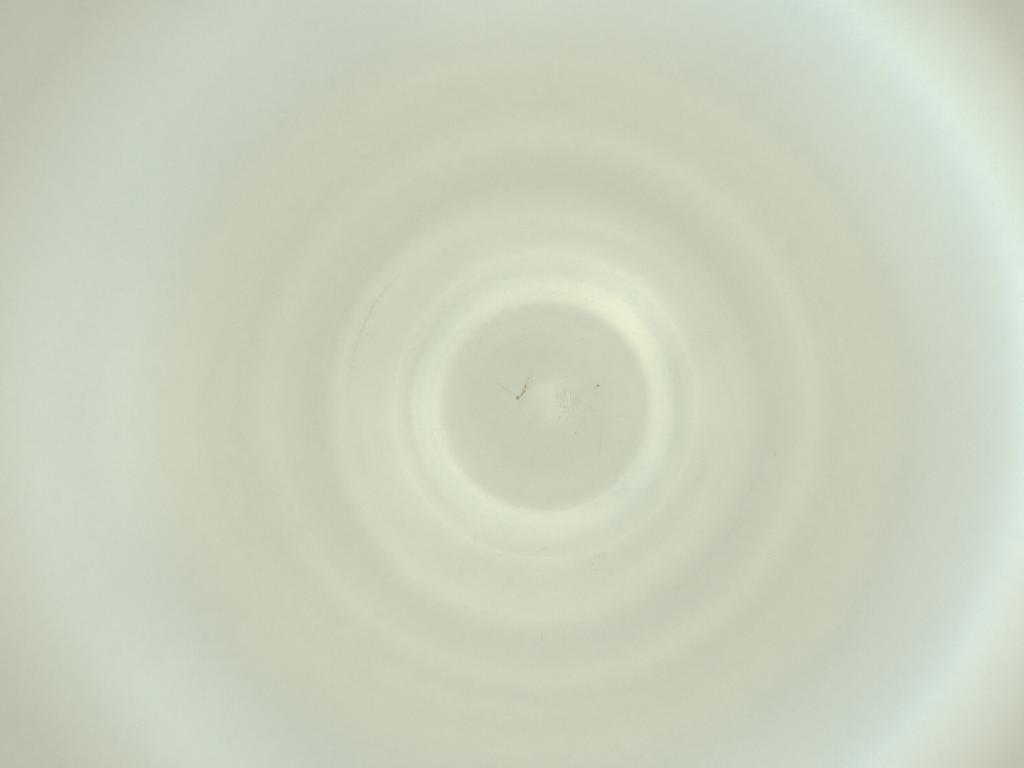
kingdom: Animalia
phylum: Arthropoda
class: Insecta
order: Diptera
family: Cecidomyiidae
